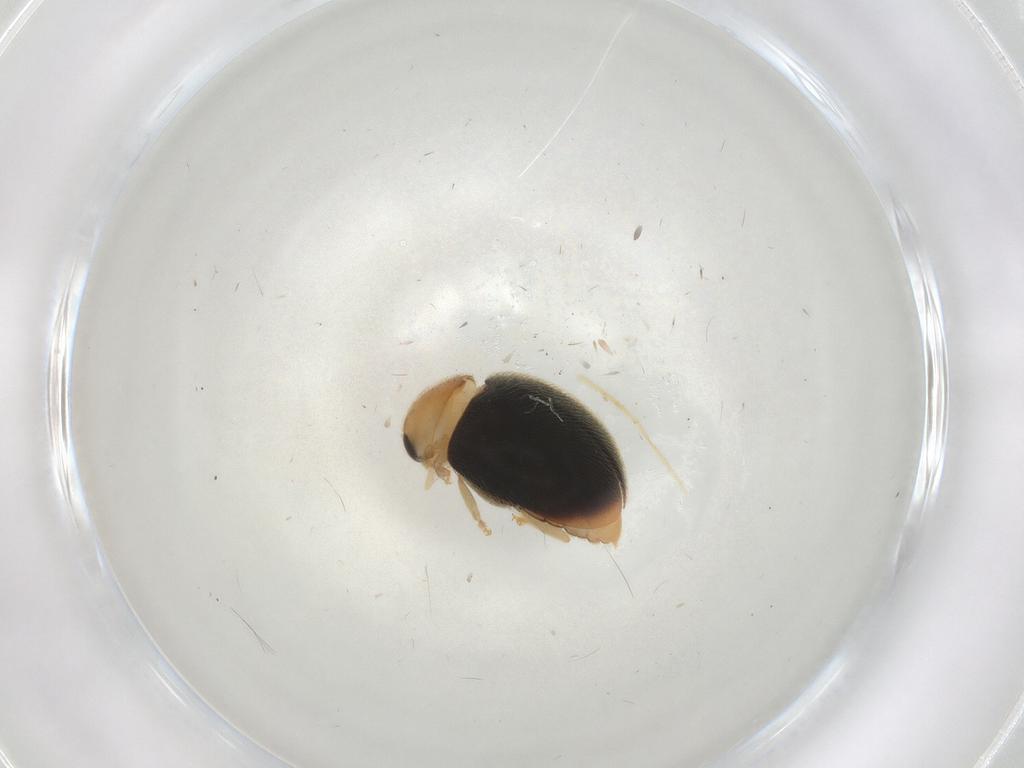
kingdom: Animalia
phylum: Arthropoda
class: Insecta
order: Coleoptera
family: Coccinellidae
